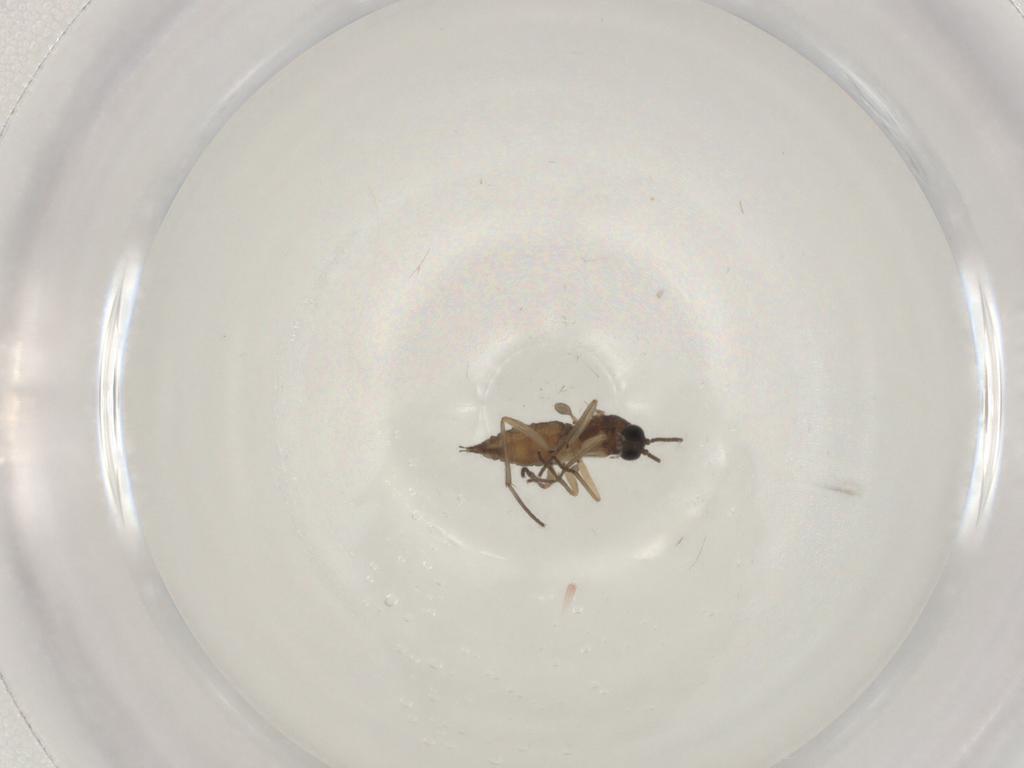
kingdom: Animalia
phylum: Arthropoda
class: Insecta
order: Diptera
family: Sciaridae
